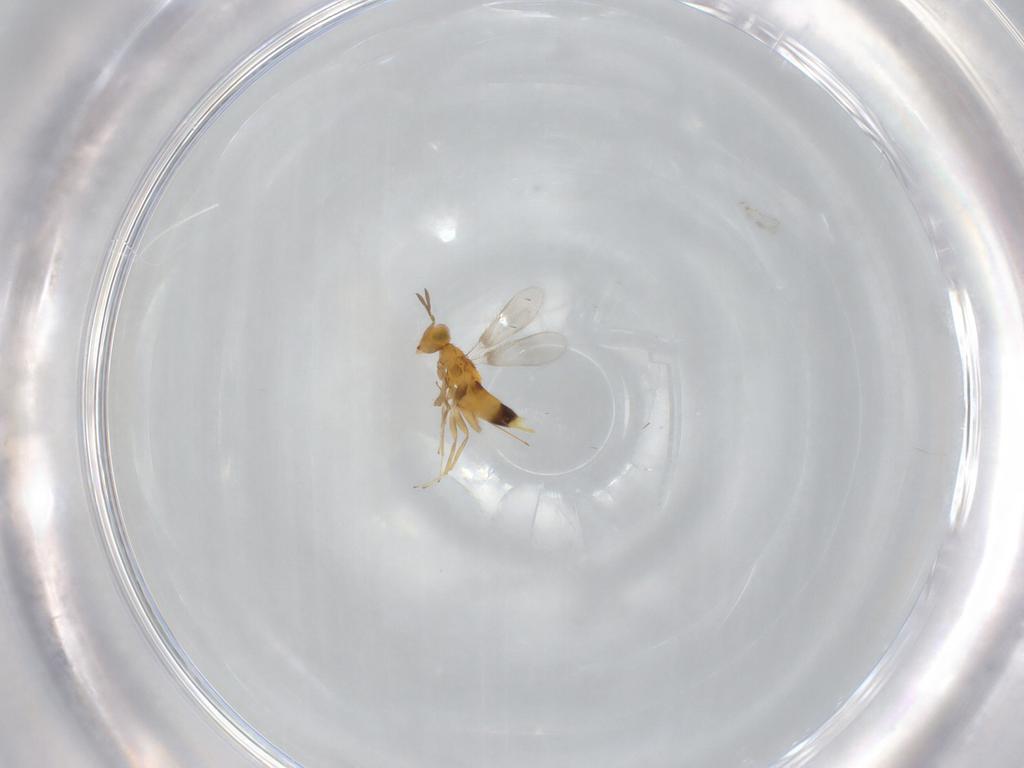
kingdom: Animalia
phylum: Arthropoda
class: Insecta
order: Hymenoptera
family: Aphelinidae
